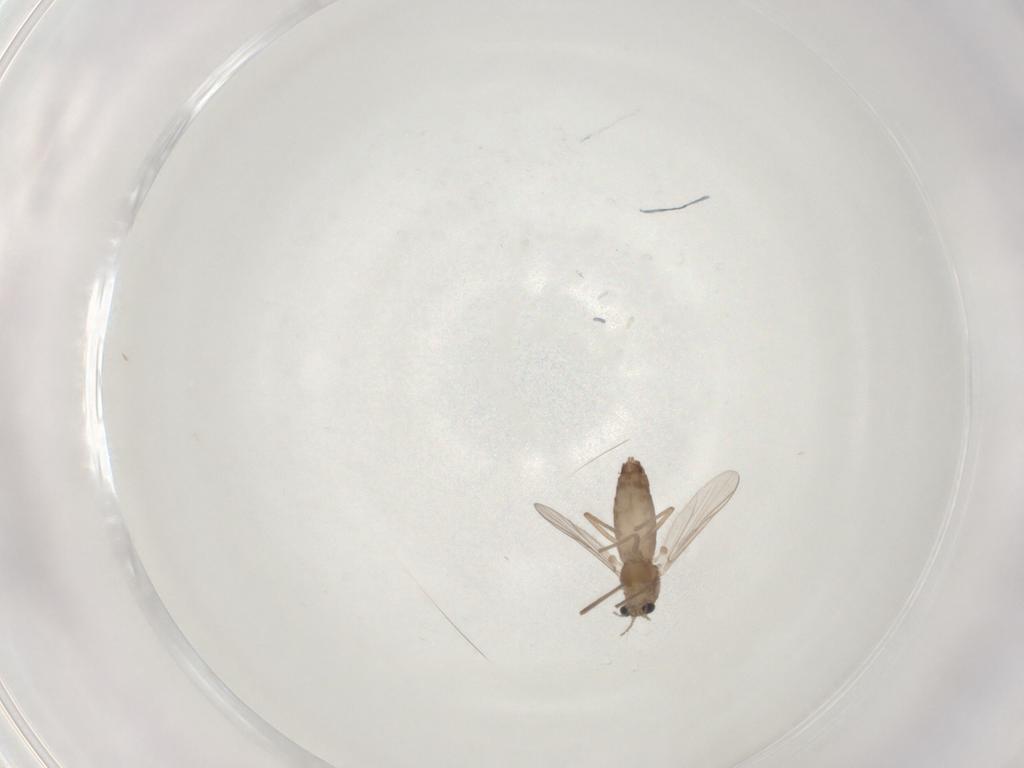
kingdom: Animalia
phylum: Arthropoda
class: Insecta
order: Diptera
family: Chironomidae
